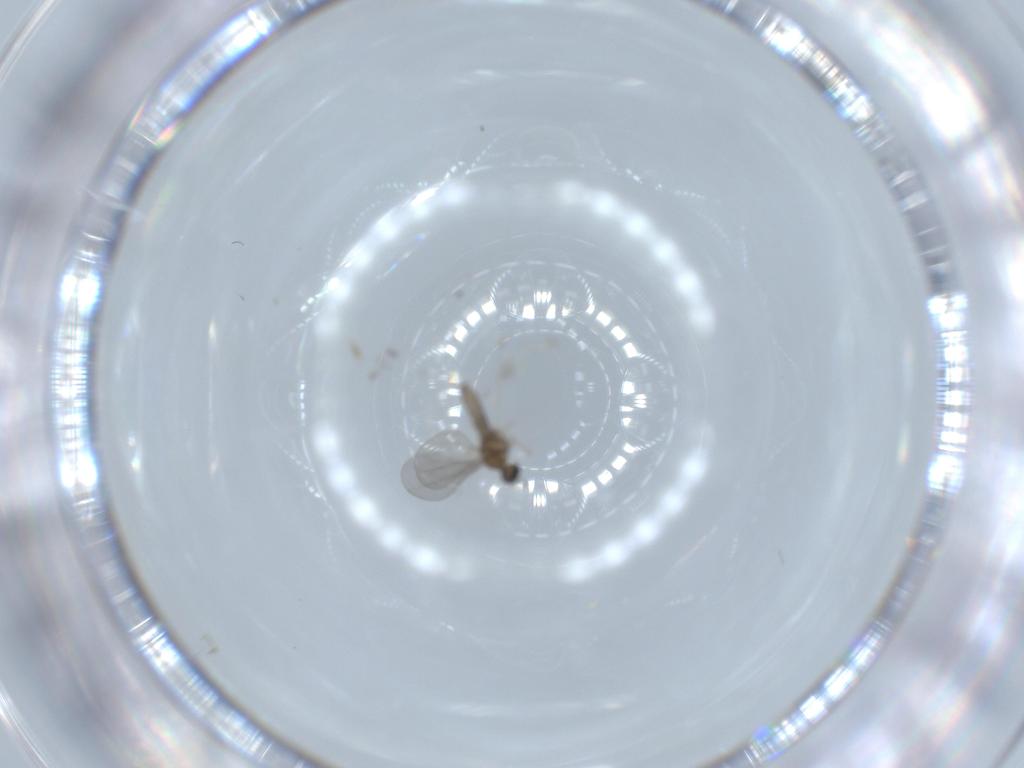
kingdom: Animalia
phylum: Arthropoda
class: Insecta
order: Diptera
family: Cecidomyiidae
